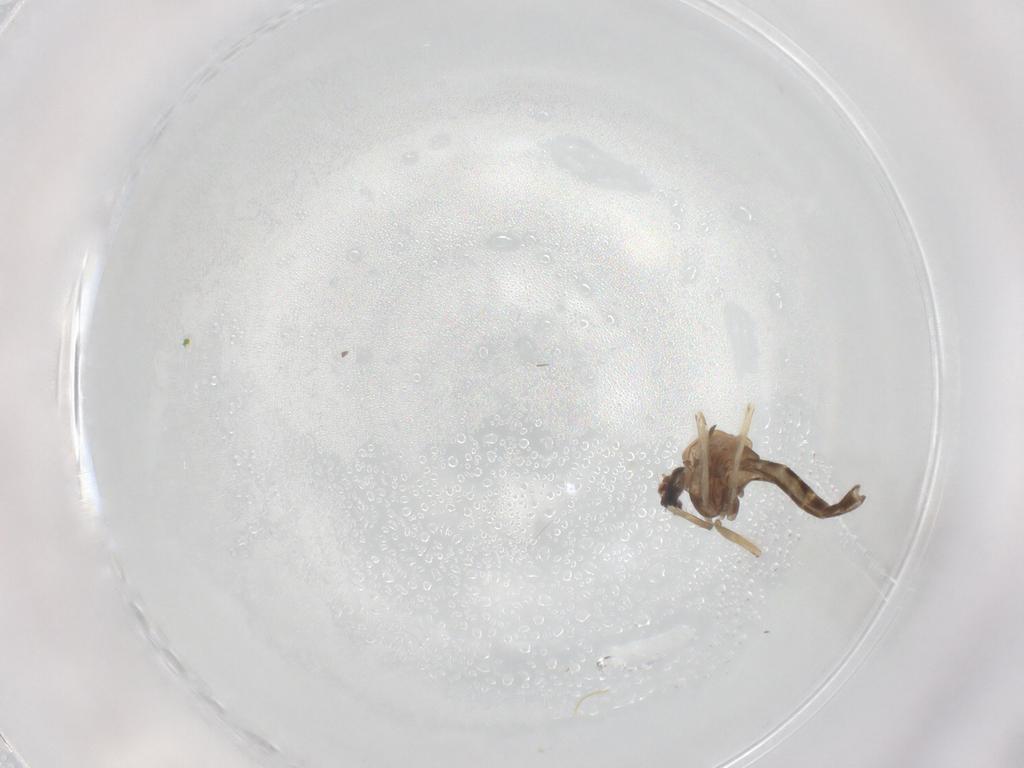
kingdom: Animalia
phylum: Arthropoda
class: Insecta
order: Diptera
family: Chironomidae
